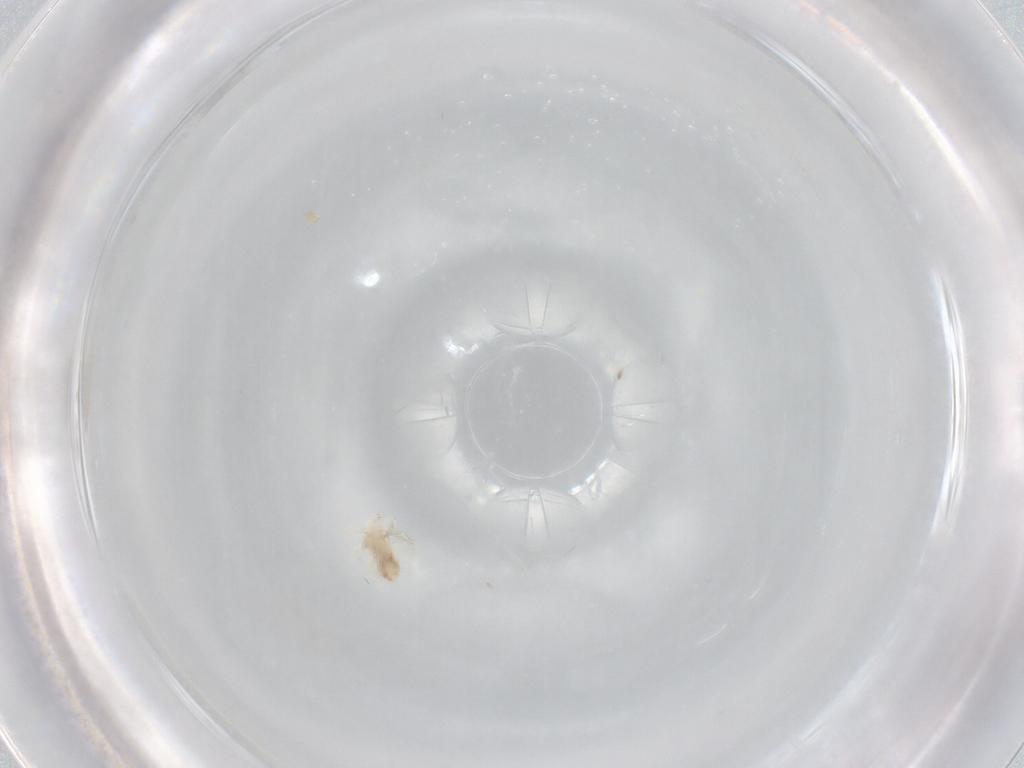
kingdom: Animalia
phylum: Arthropoda
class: Arachnida
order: Trombidiformes
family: Anystidae
